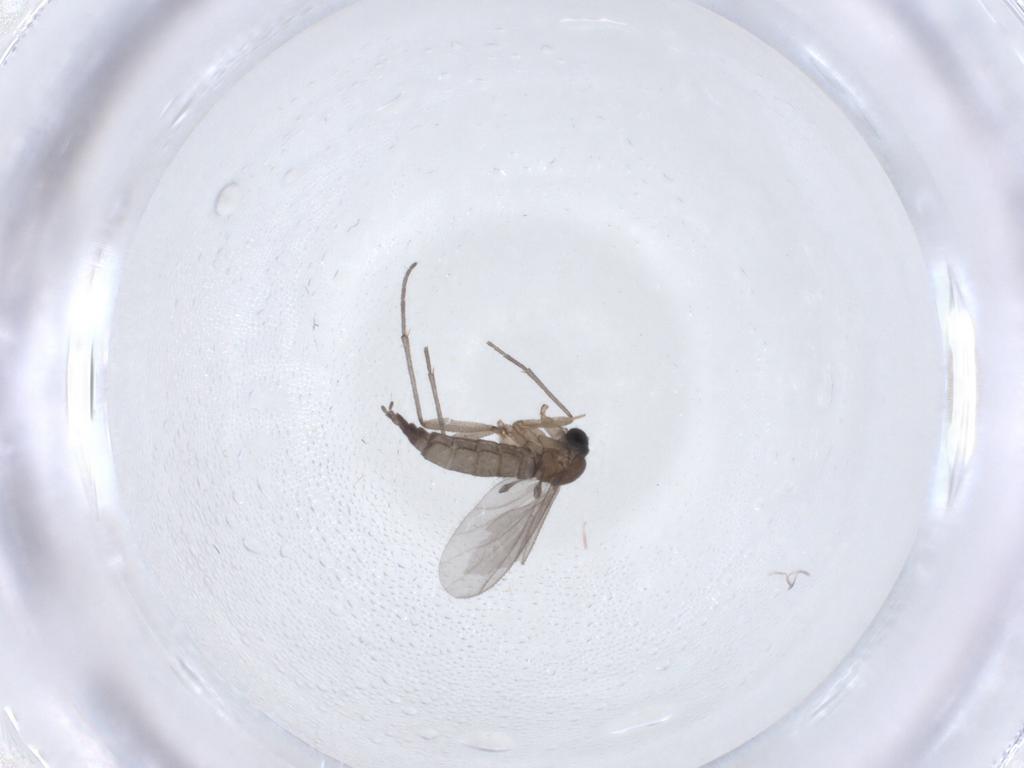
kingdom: Animalia
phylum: Arthropoda
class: Insecta
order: Diptera
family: Sciaridae
